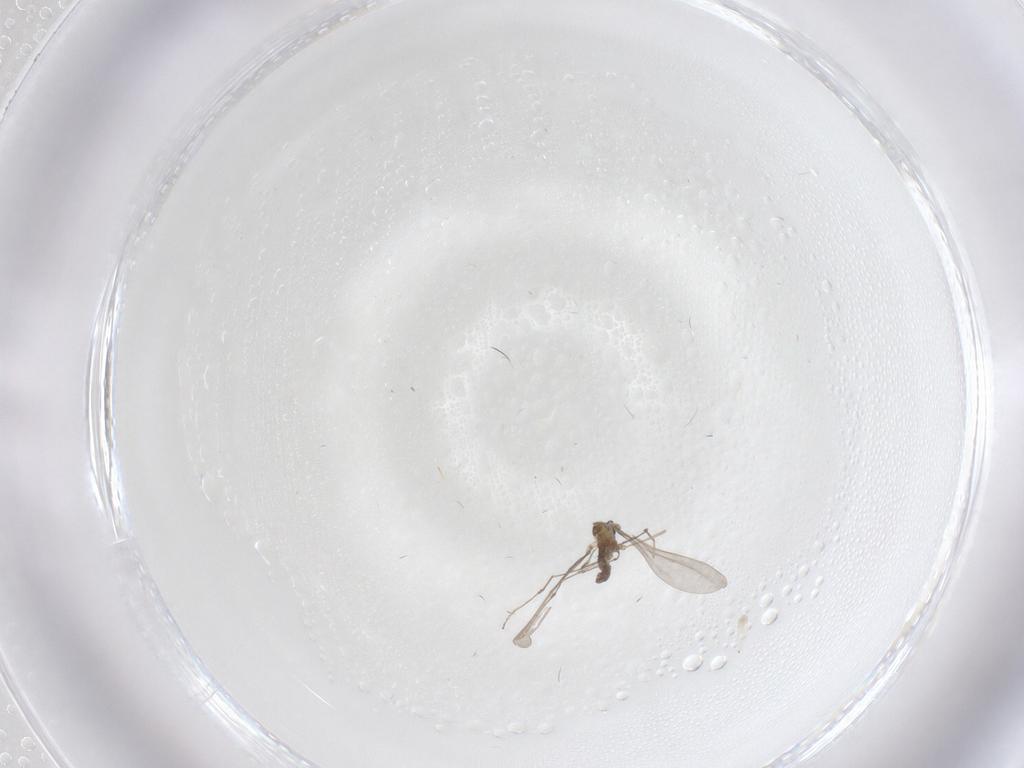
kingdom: Animalia
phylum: Arthropoda
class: Insecta
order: Diptera
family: Cecidomyiidae
